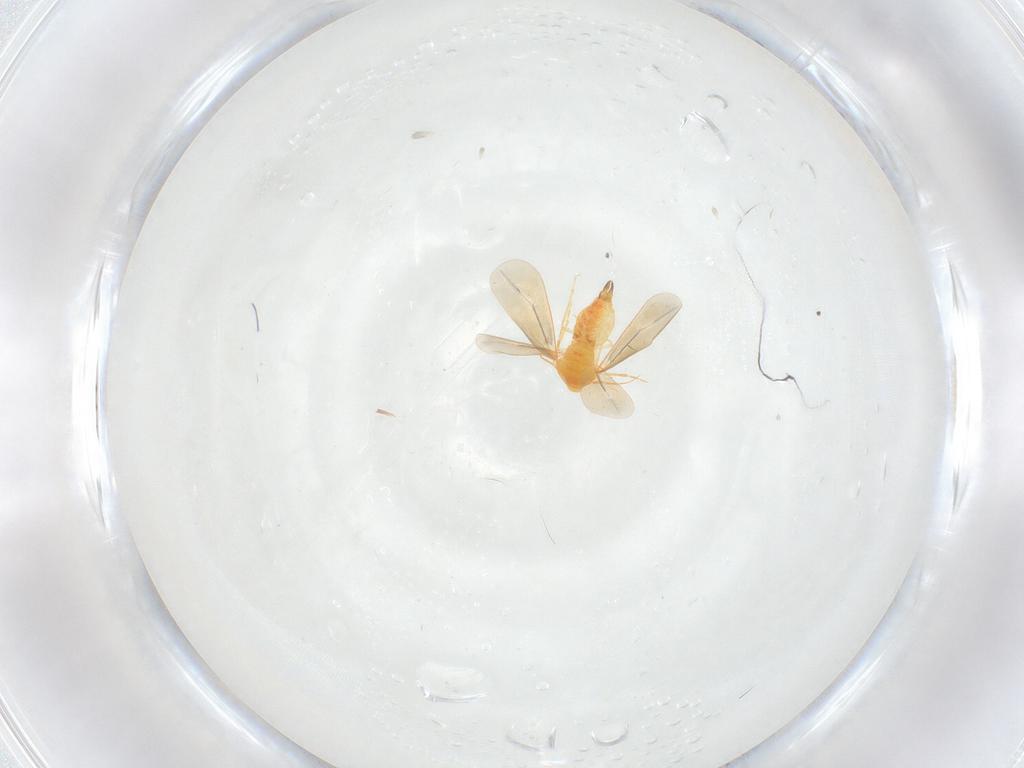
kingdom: Animalia
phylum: Arthropoda
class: Insecta
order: Hemiptera
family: Aleyrodidae
